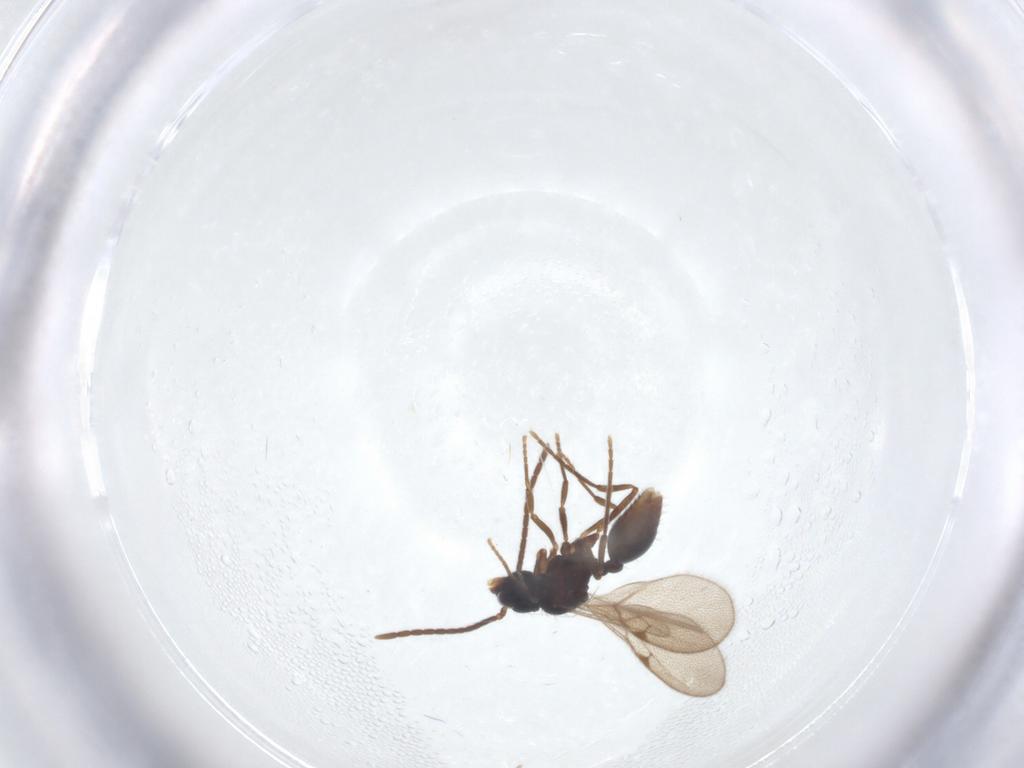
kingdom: Animalia
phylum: Arthropoda
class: Insecta
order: Hymenoptera
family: Formicidae
